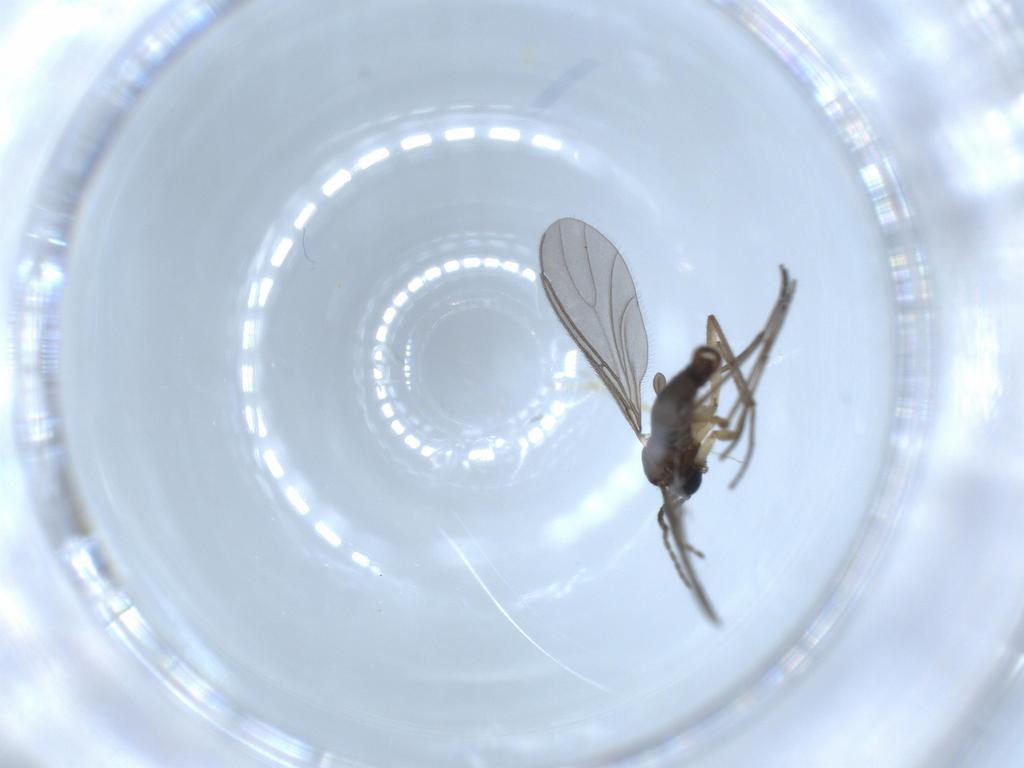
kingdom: Animalia
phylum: Arthropoda
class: Insecta
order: Diptera
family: Sciaridae
